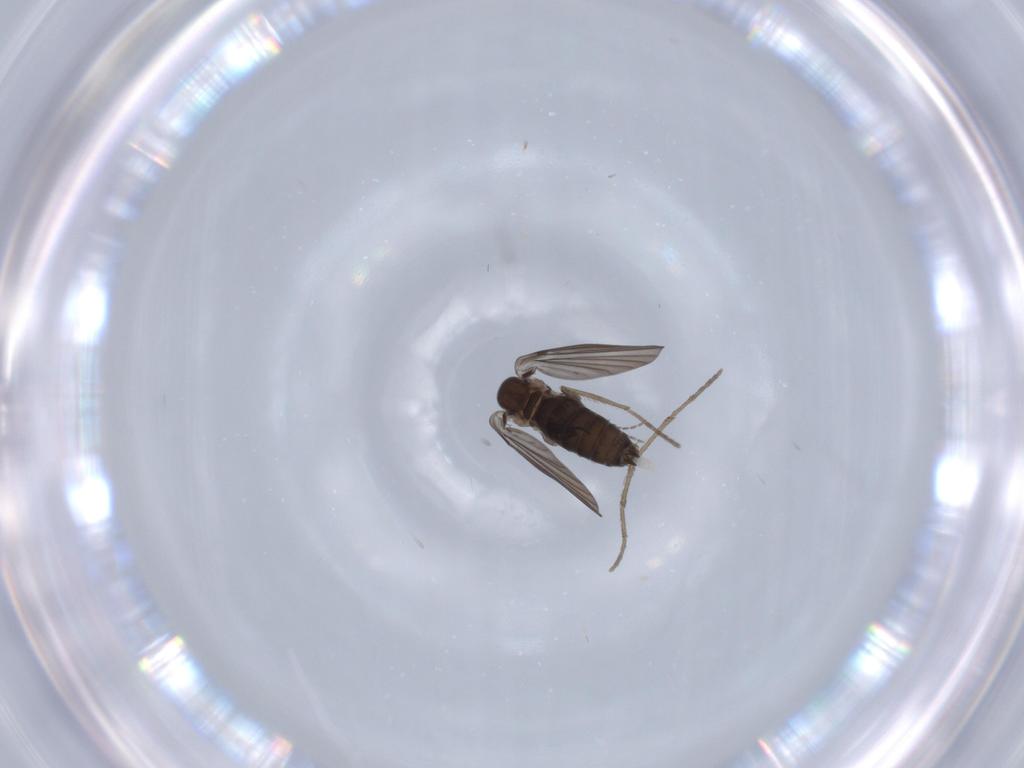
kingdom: Animalia
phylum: Arthropoda
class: Insecta
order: Diptera
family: Psychodidae
